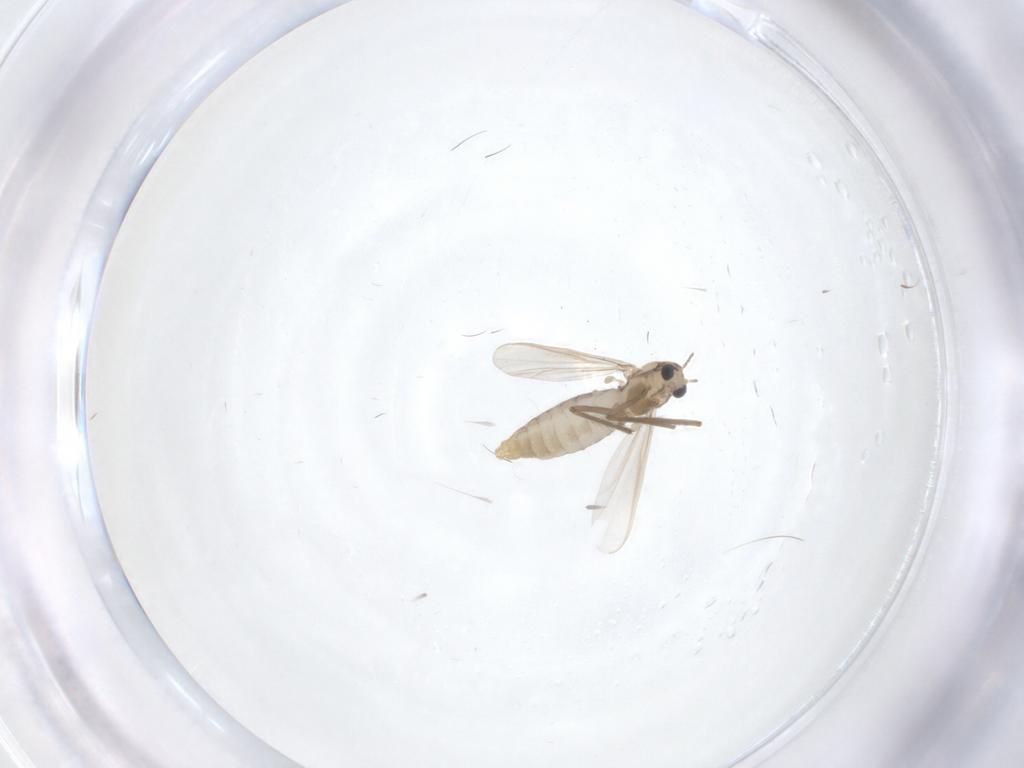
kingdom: Animalia
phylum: Arthropoda
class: Insecta
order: Diptera
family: Chironomidae
